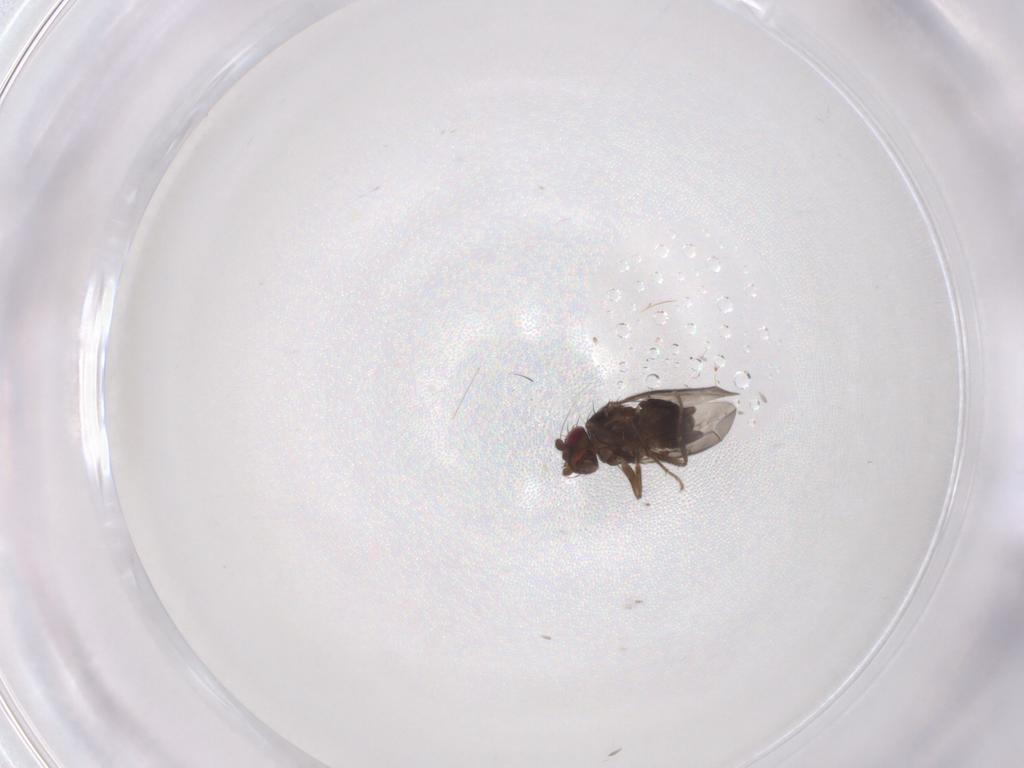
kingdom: Animalia
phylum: Arthropoda
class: Insecta
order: Diptera
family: Sphaeroceridae
